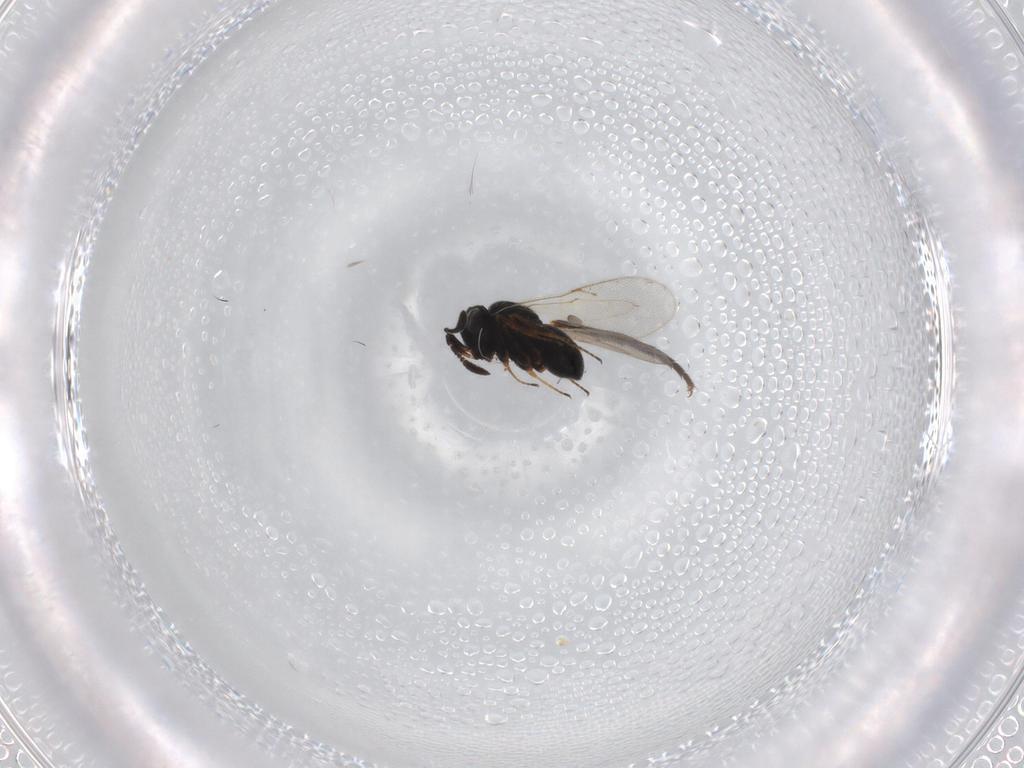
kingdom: Animalia
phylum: Arthropoda
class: Insecta
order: Hymenoptera
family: Scelionidae
